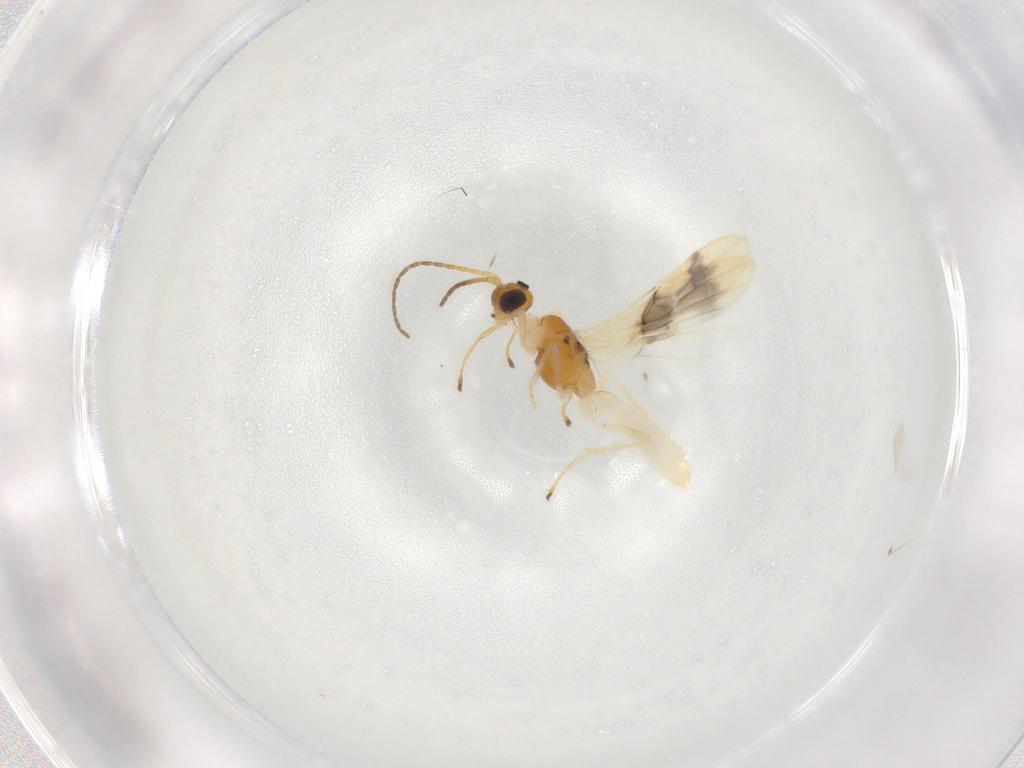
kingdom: Animalia
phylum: Arthropoda
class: Insecta
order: Hymenoptera
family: Braconidae
